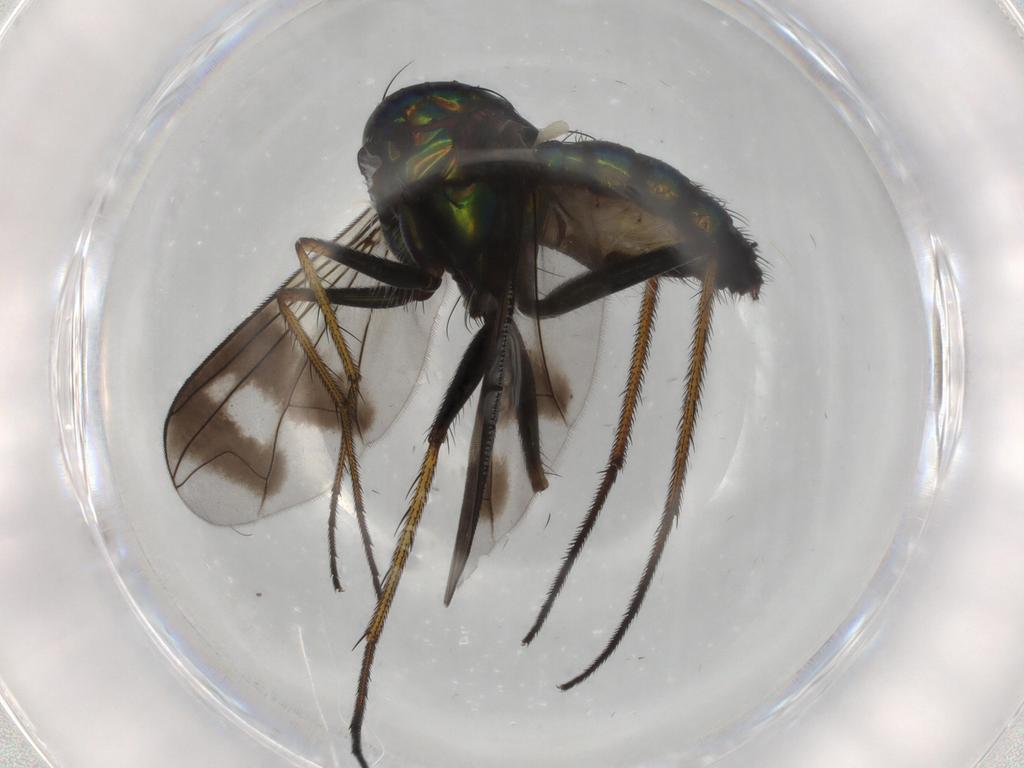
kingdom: Animalia
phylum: Arthropoda
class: Insecta
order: Diptera
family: Dolichopodidae
